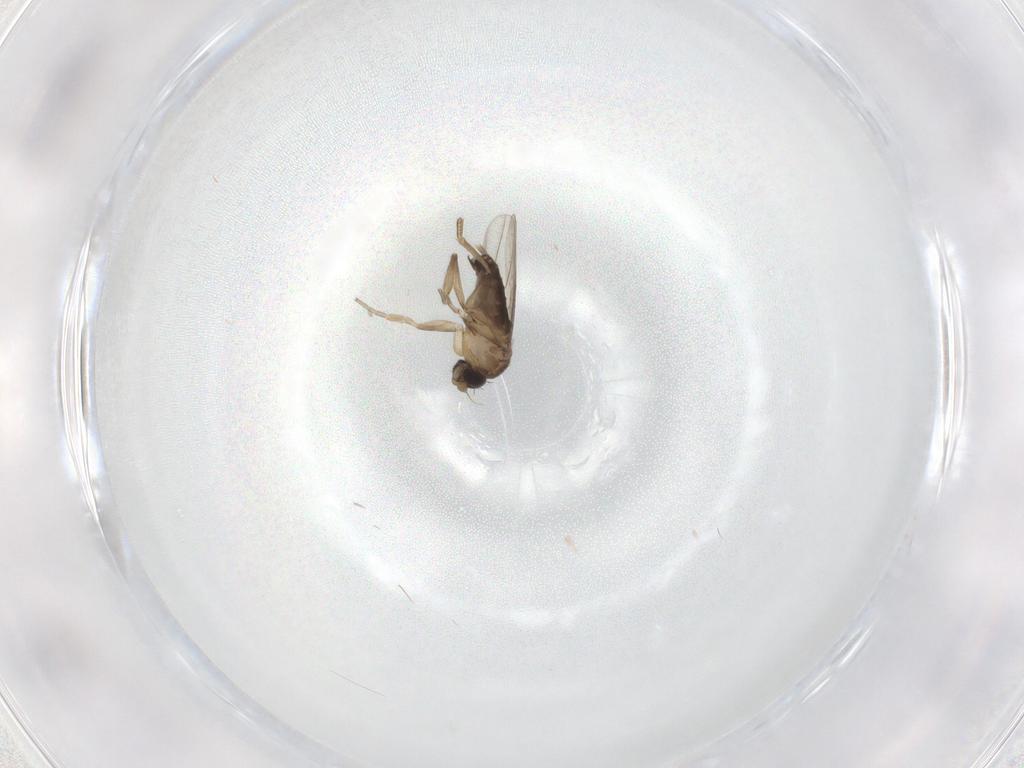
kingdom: Animalia
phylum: Arthropoda
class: Insecta
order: Diptera
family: Phoridae
